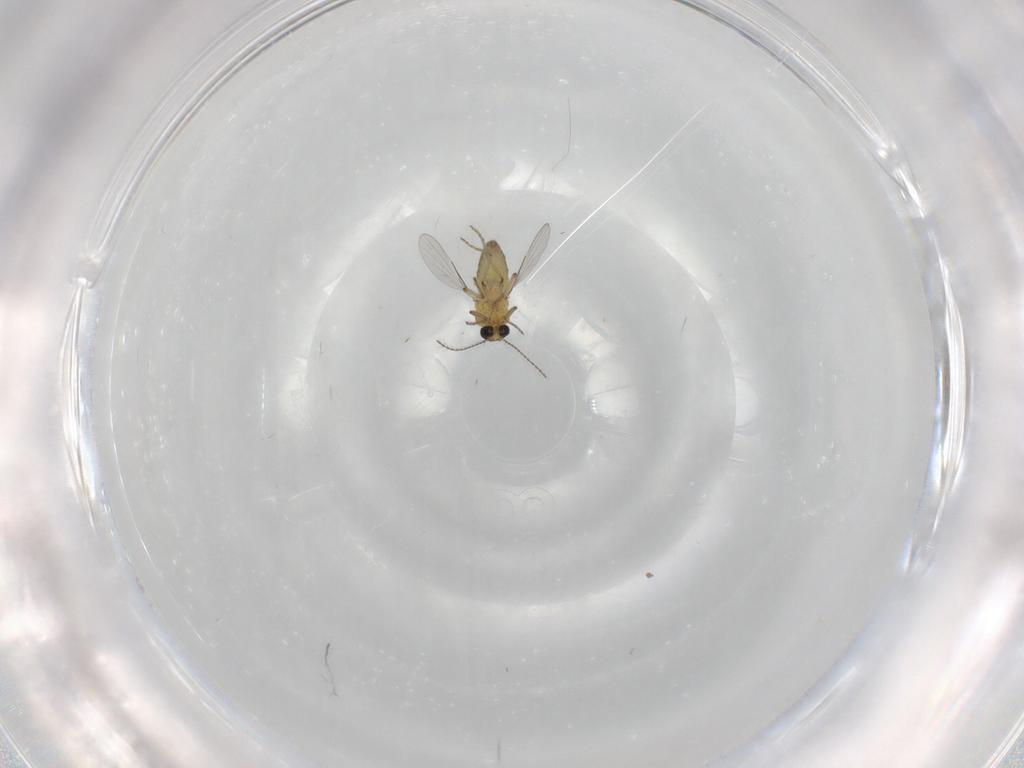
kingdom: Animalia
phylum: Arthropoda
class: Insecta
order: Diptera
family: Ceratopogonidae
